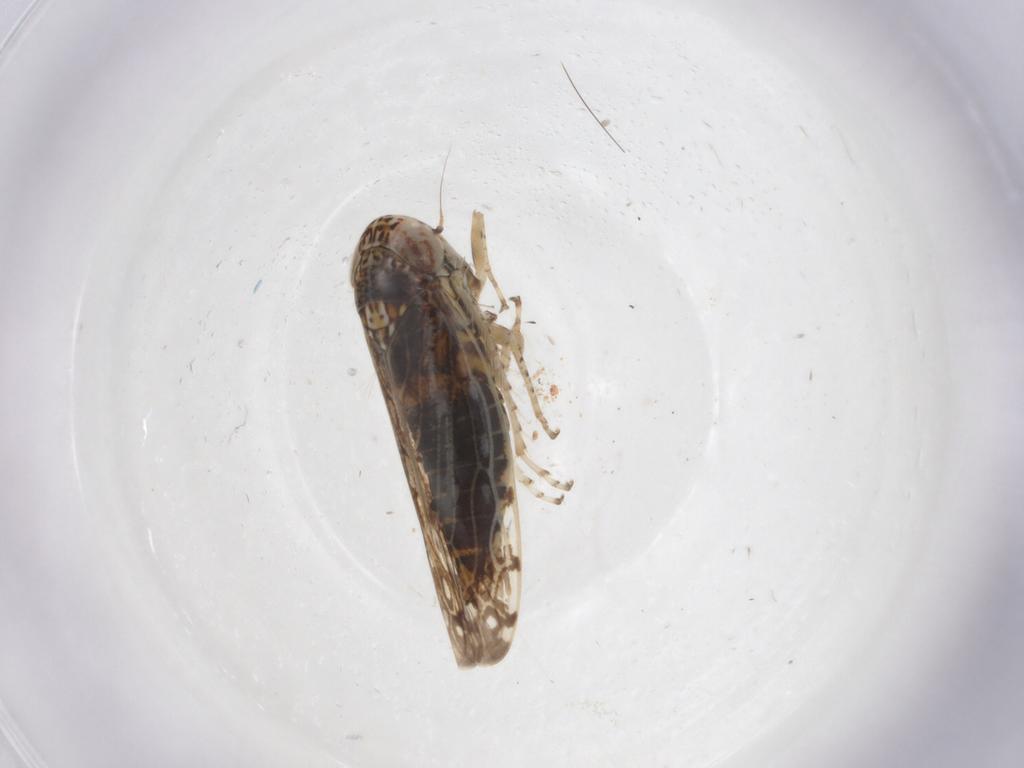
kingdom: Animalia
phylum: Arthropoda
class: Insecta
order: Hemiptera
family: Cicadellidae
